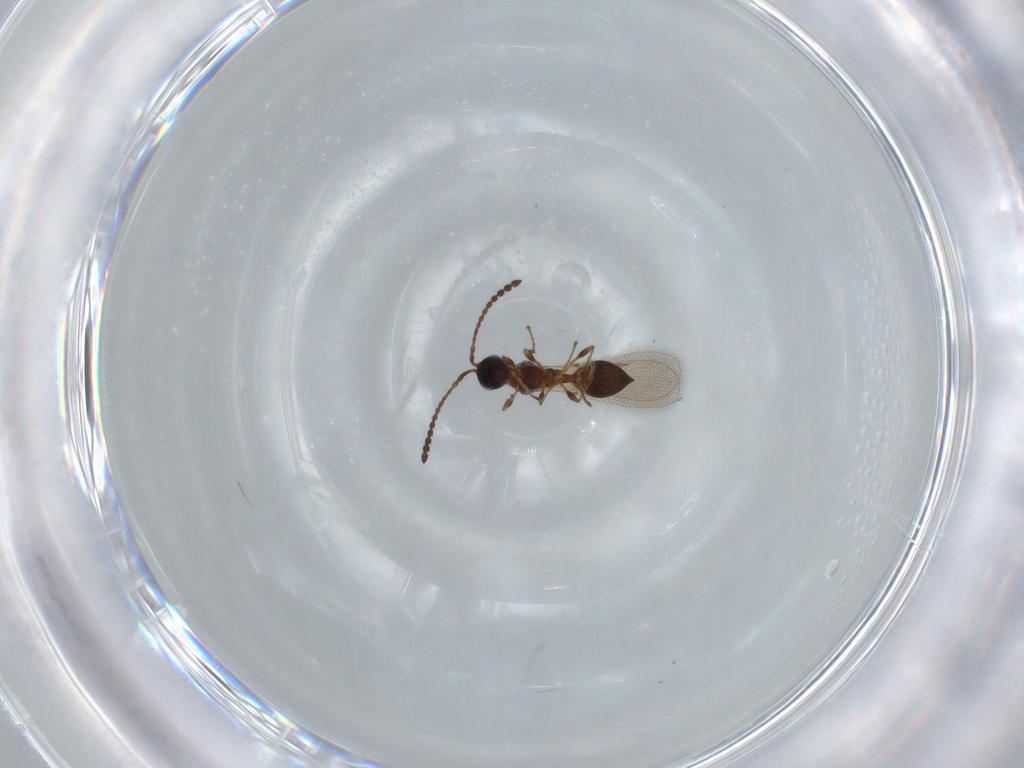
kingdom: Animalia
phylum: Arthropoda
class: Insecta
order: Hymenoptera
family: Diapriidae
